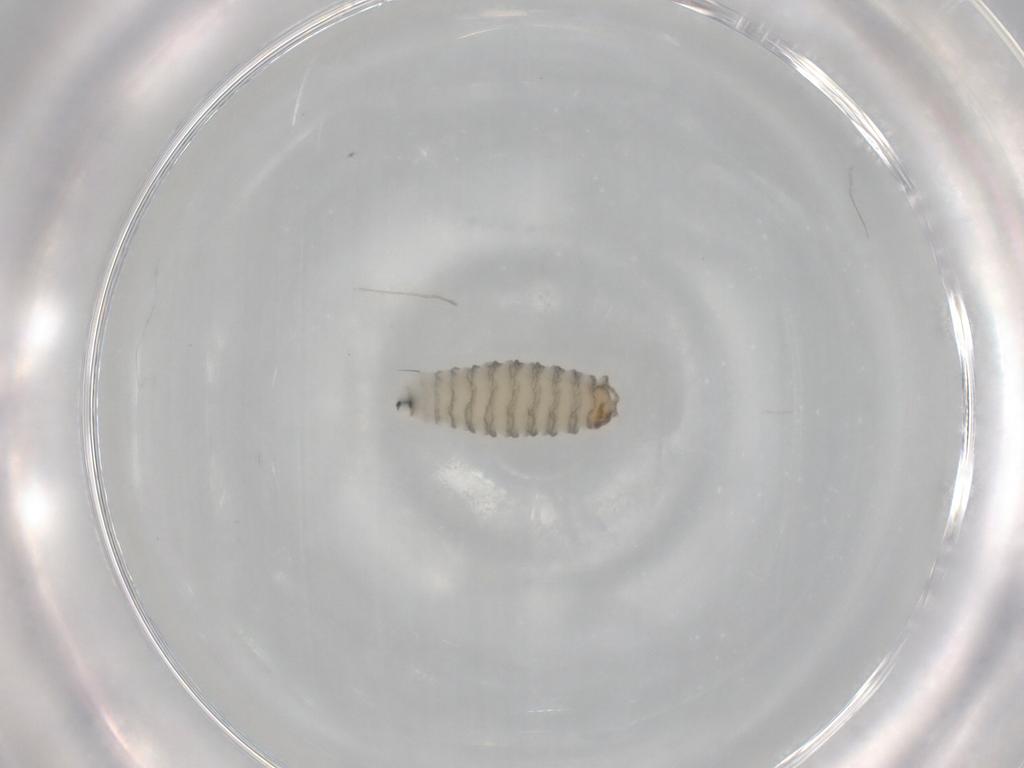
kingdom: Animalia
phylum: Arthropoda
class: Insecta
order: Diptera
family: Sarcophagidae
